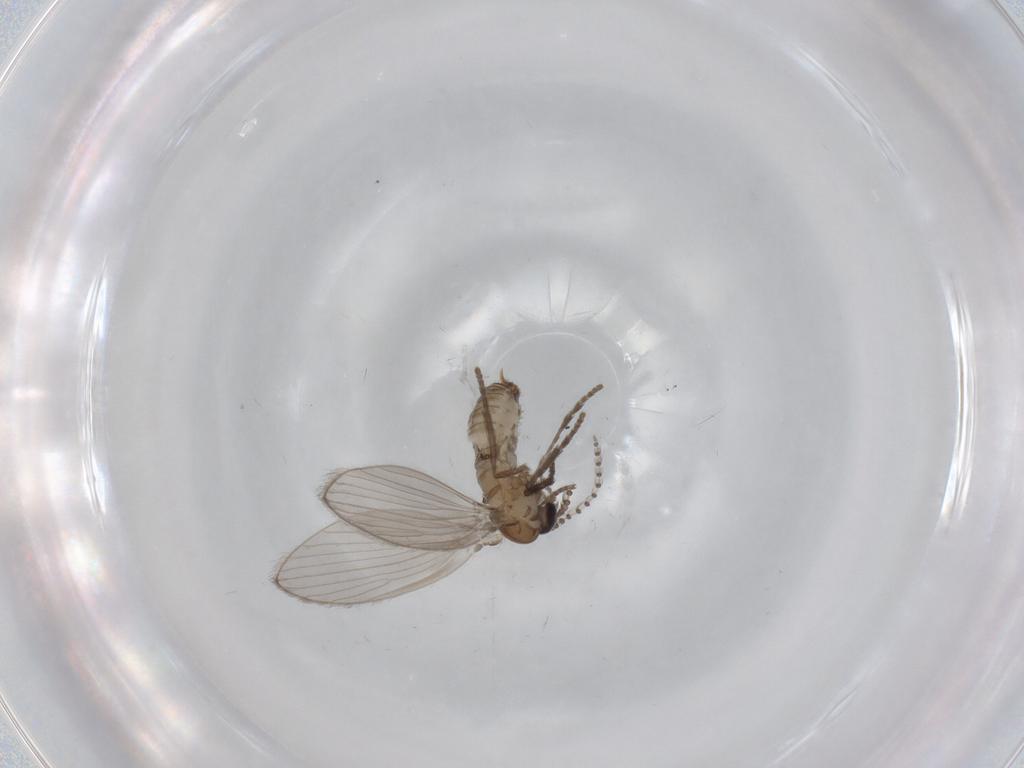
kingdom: Animalia
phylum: Arthropoda
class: Insecta
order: Diptera
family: Psychodidae
